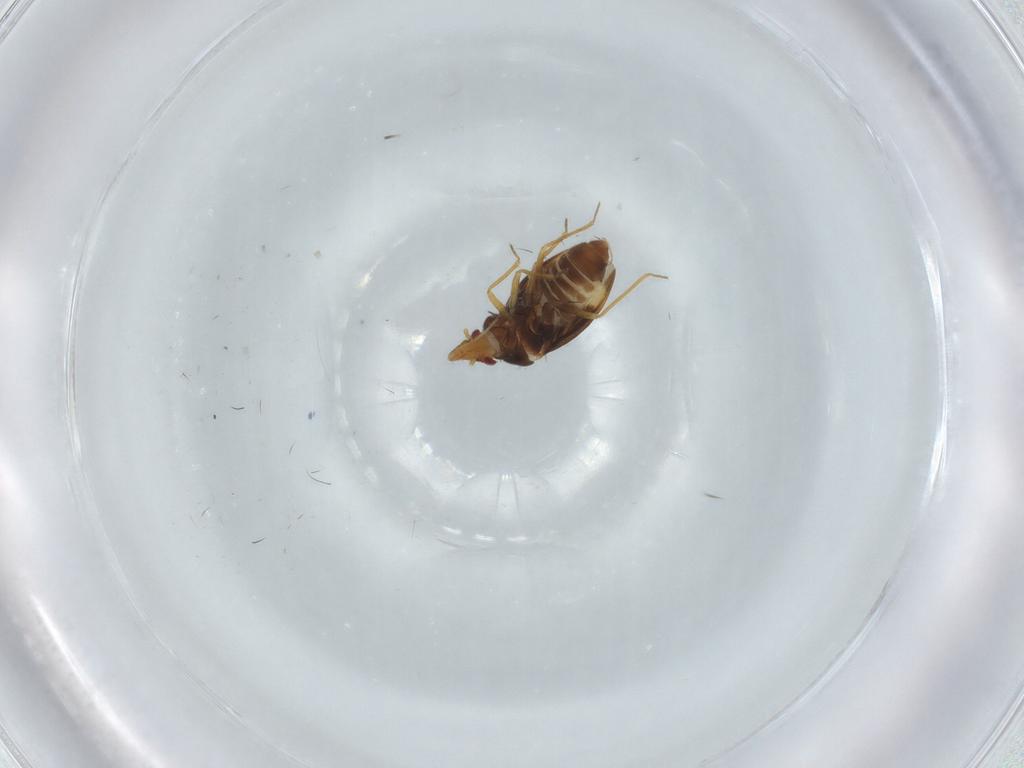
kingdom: Animalia
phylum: Arthropoda
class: Insecta
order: Hemiptera
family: Schizopteridae
